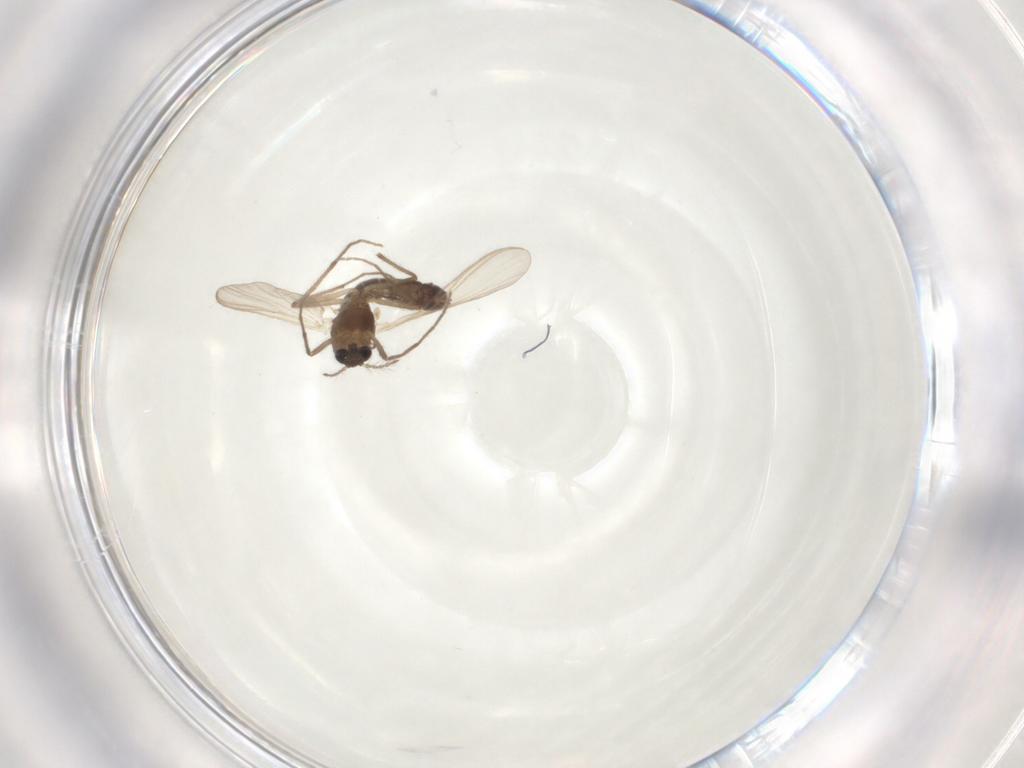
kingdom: Animalia
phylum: Arthropoda
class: Insecta
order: Diptera
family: Chironomidae
